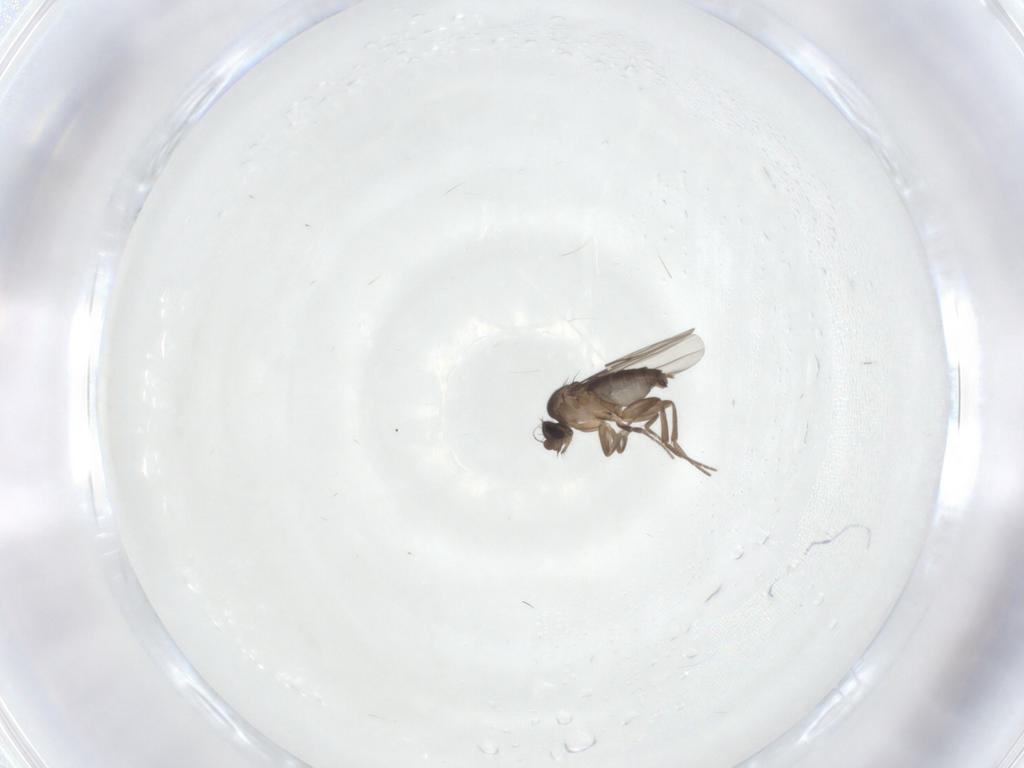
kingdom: Animalia
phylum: Arthropoda
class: Insecta
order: Diptera
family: Phoridae
